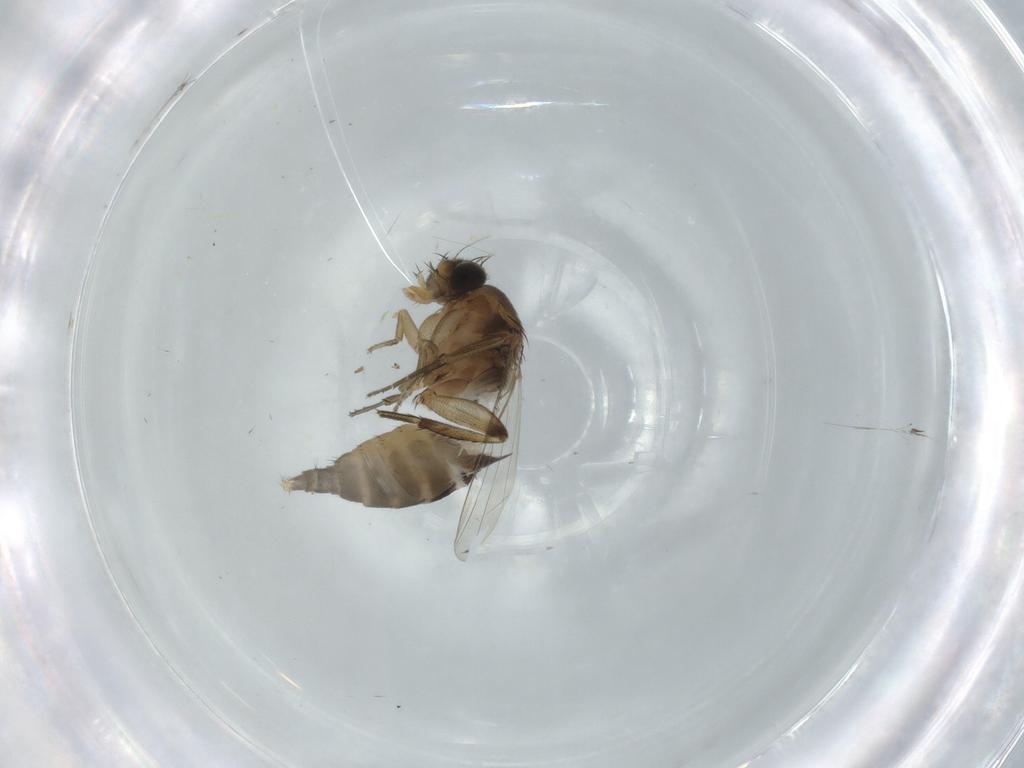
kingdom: Animalia
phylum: Arthropoda
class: Insecta
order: Diptera
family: Phoridae
